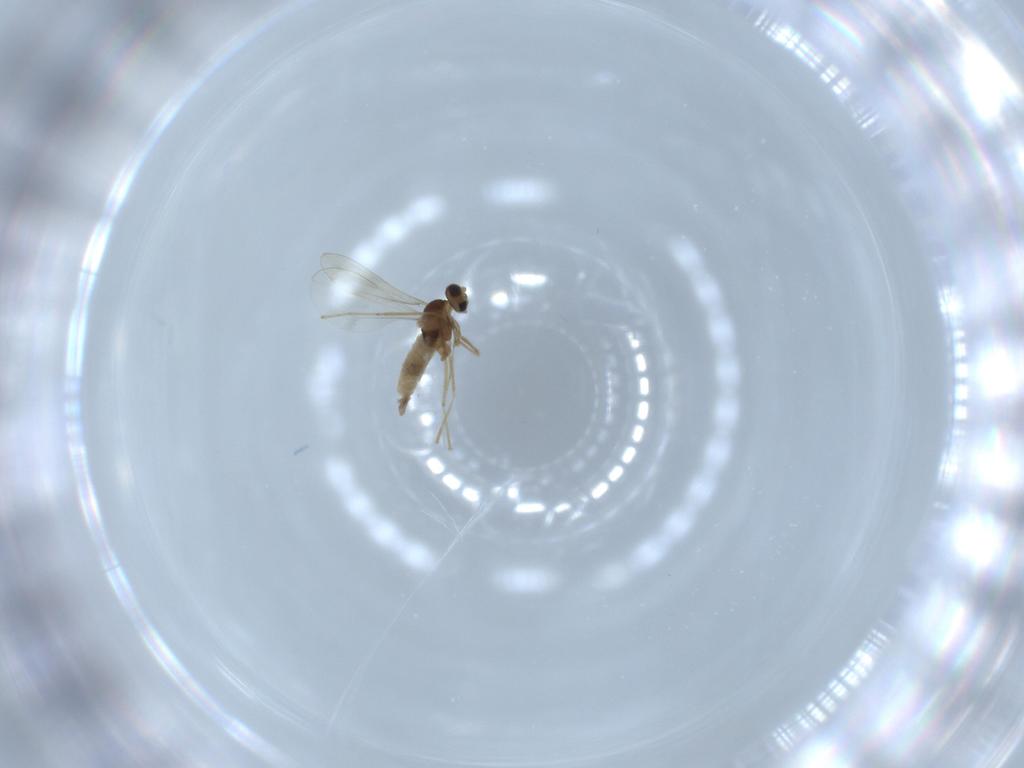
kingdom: Animalia
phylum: Arthropoda
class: Insecta
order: Diptera
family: Cecidomyiidae
